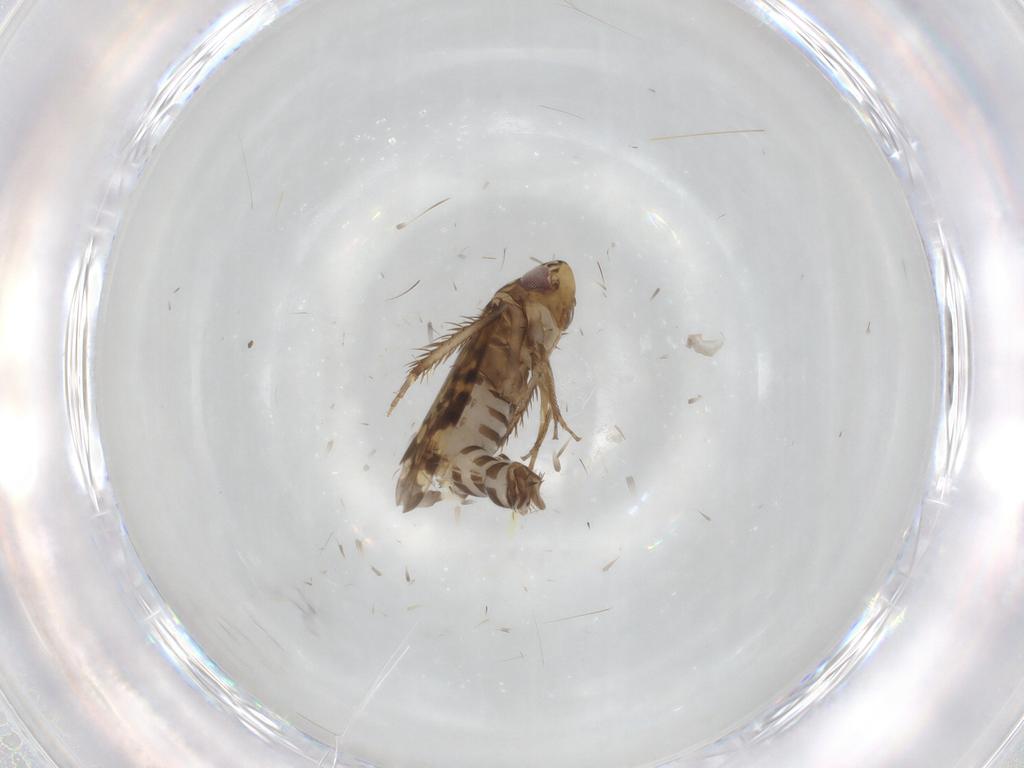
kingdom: Animalia
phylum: Arthropoda
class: Insecta
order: Hemiptera
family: Cicadellidae
